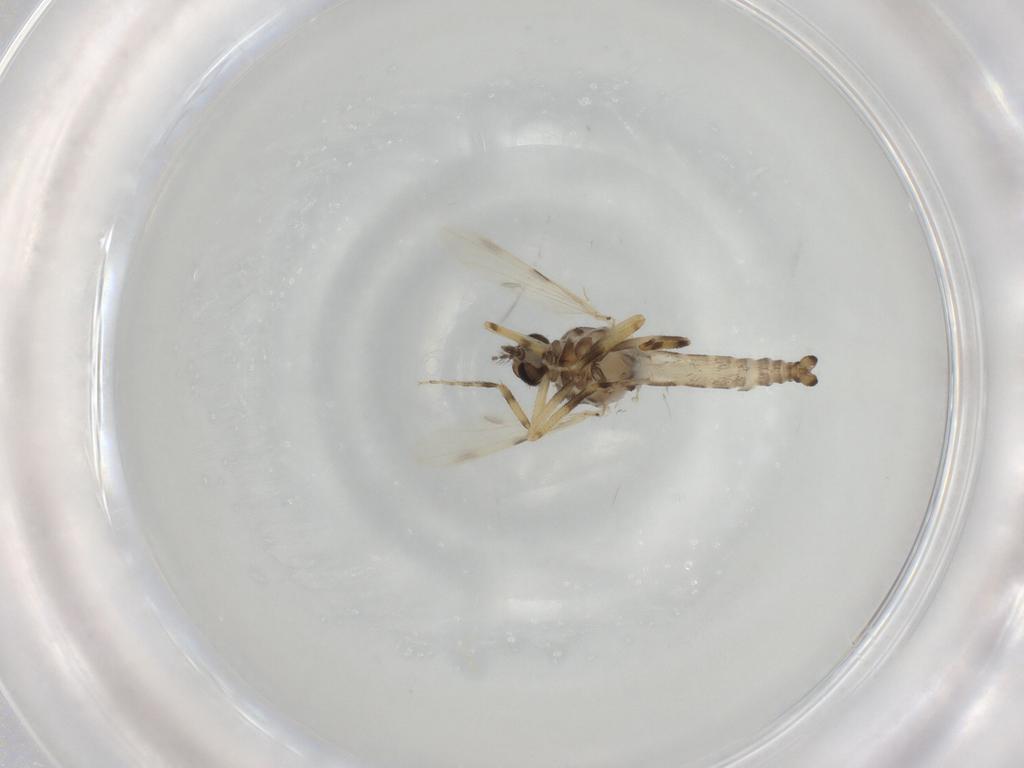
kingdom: Animalia
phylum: Arthropoda
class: Insecta
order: Diptera
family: Ceratopogonidae
